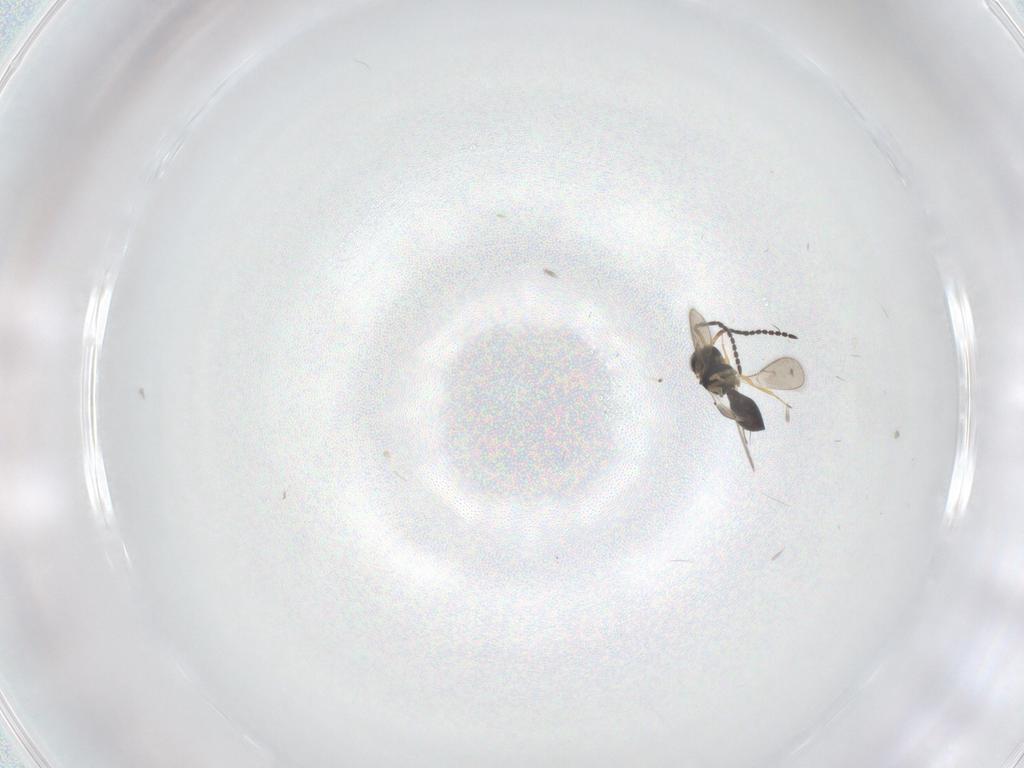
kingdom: Animalia
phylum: Arthropoda
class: Insecta
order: Hymenoptera
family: Scelionidae
